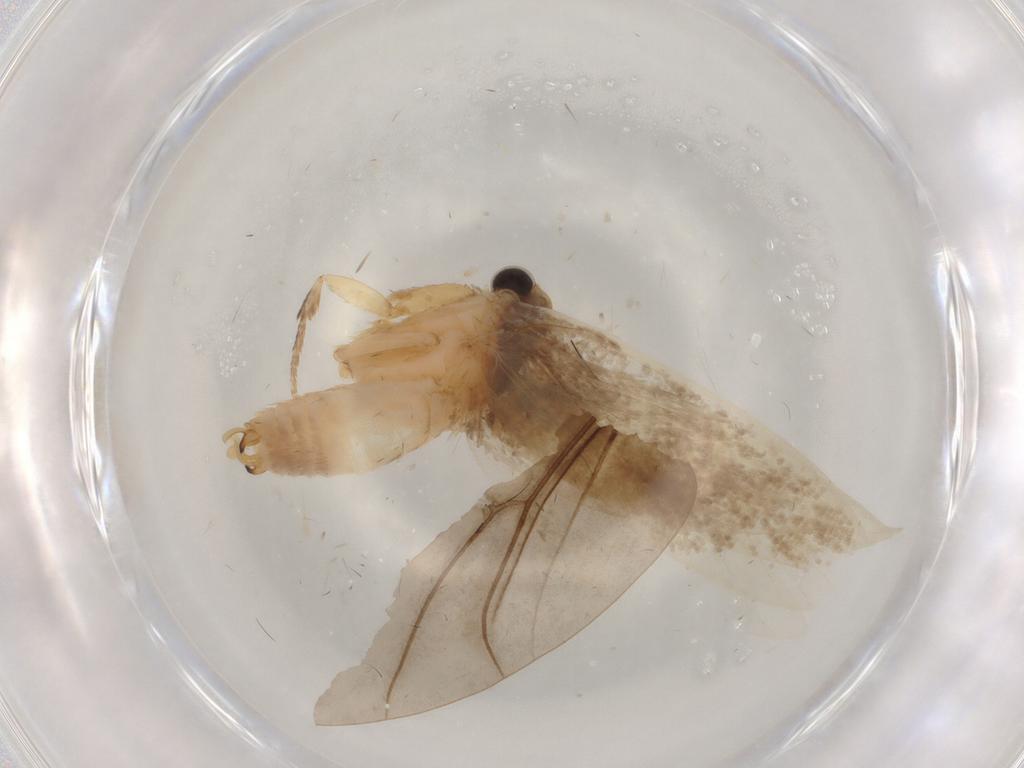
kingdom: Animalia
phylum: Arthropoda
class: Insecta
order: Lepidoptera
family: Tineidae
